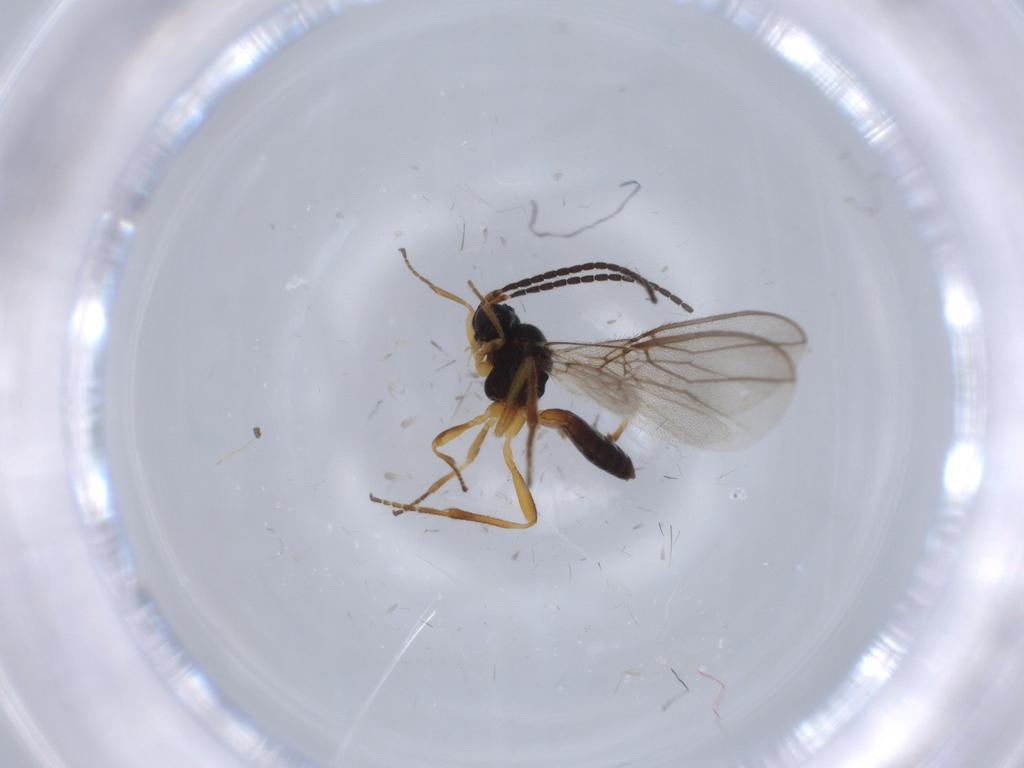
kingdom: Animalia
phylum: Arthropoda
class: Insecta
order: Hymenoptera
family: Braconidae
